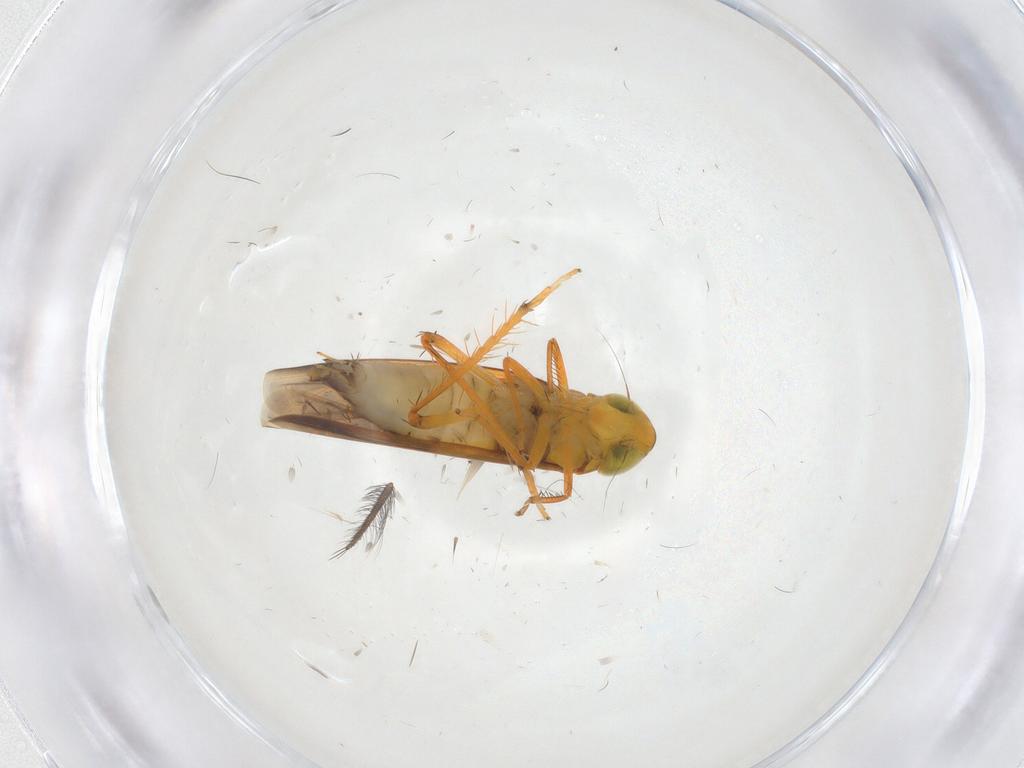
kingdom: Animalia
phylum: Arthropoda
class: Insecta
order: Hemiptera
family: Cicadellidae
